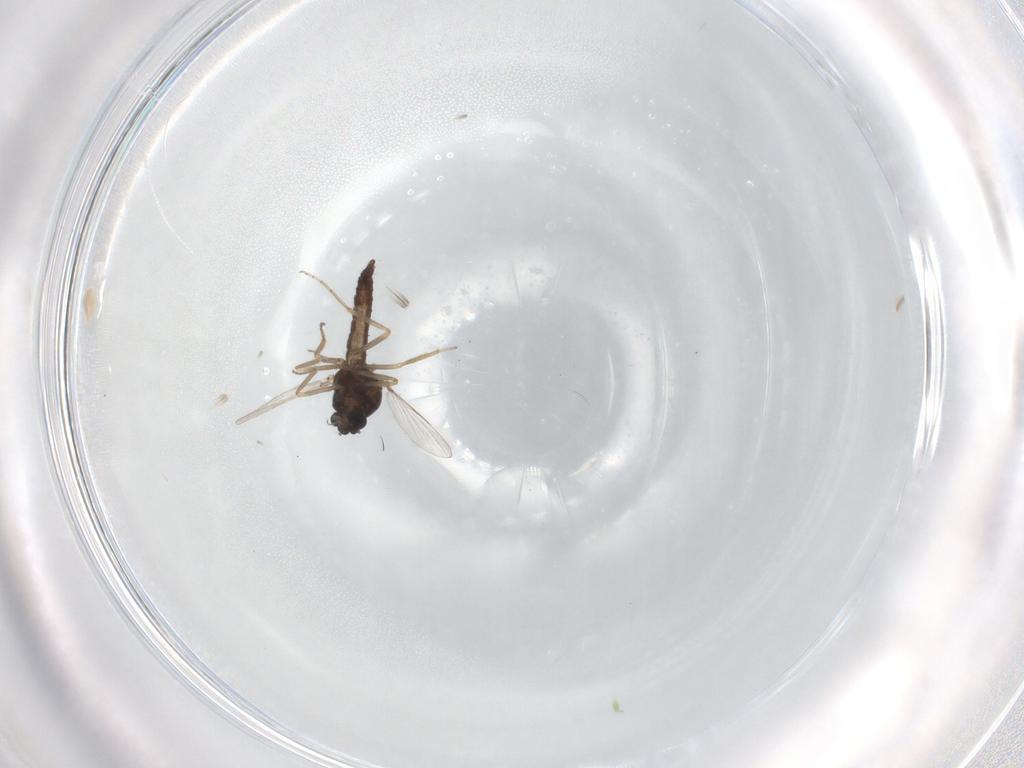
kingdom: Animalia
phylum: Arthropoda
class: Insecta
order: Diptera
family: Ceratopogonidae
